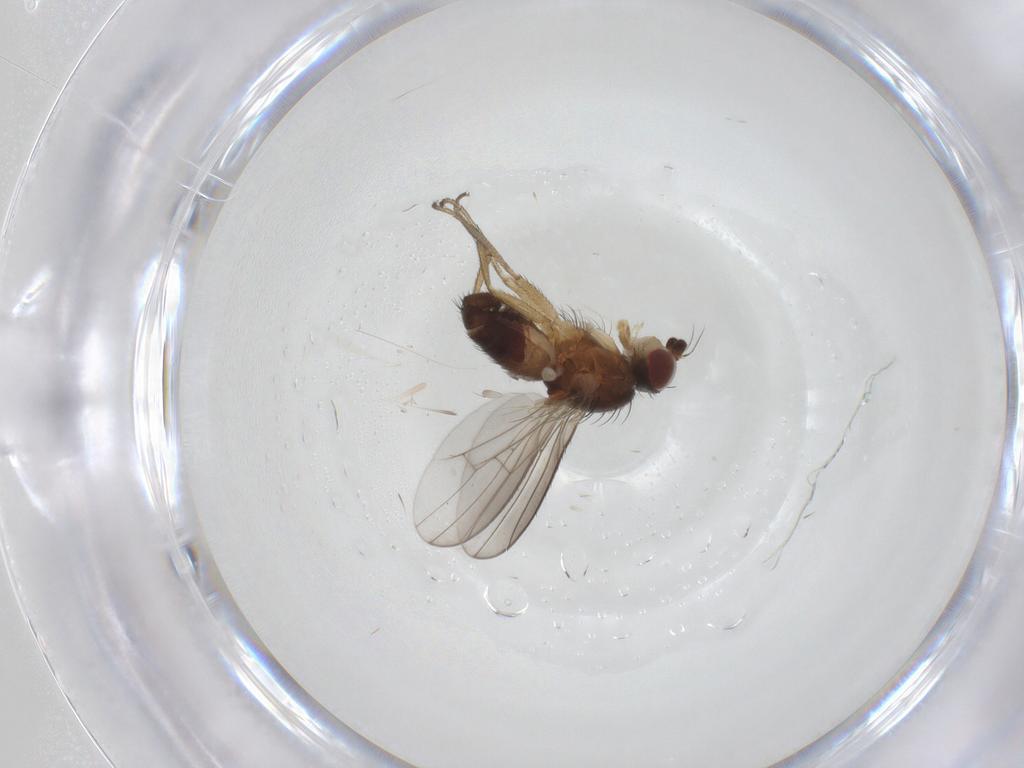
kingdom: Animalia
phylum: Arthropoda
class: Insecta
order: Diptera
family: Heleomyzidae
